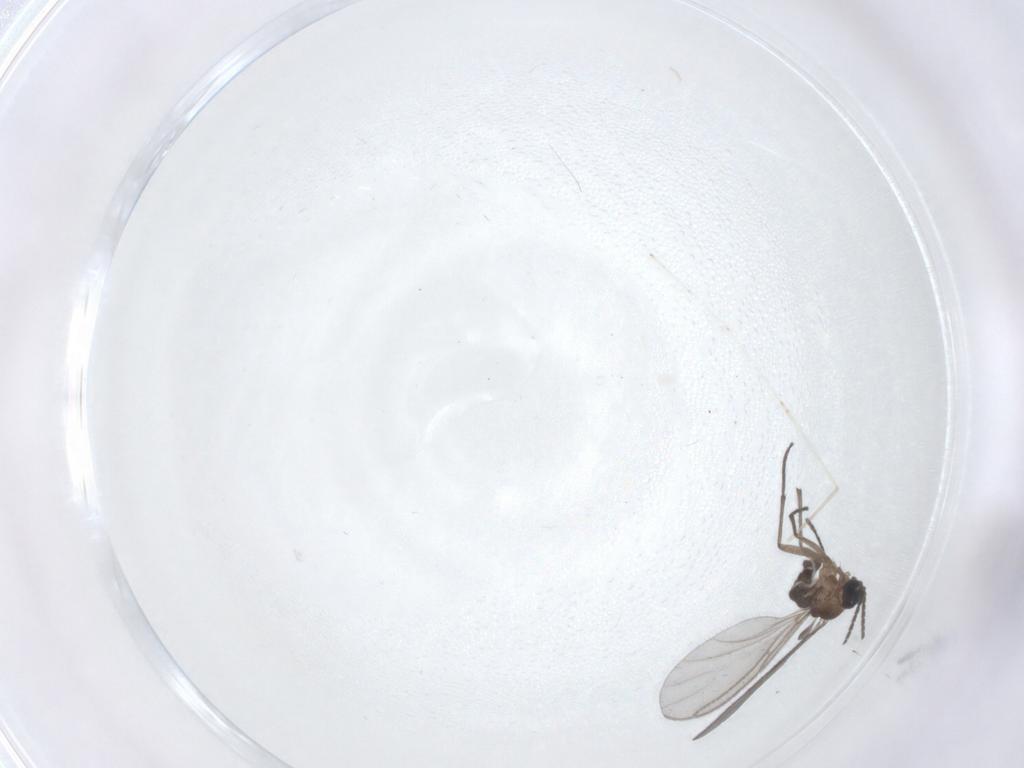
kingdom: Animalia
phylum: Arthropoda
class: Insecta
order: Diptera
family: Cecidomyiidae
